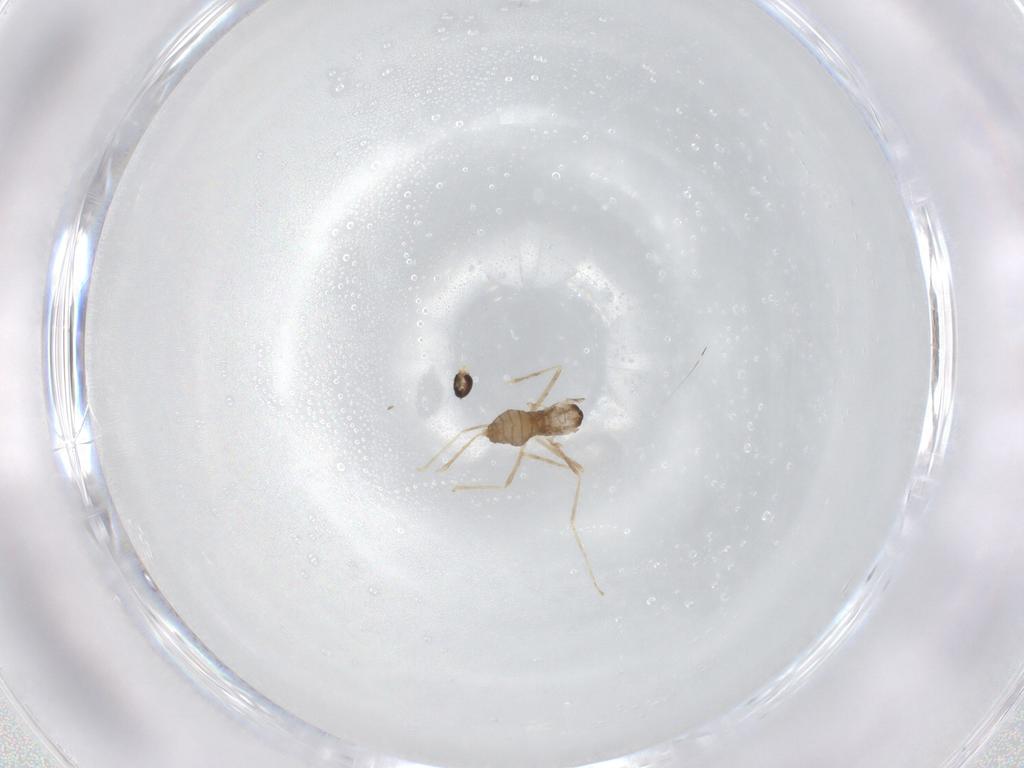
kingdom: Animalia
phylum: Arthropoda
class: Insecta
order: Diptera
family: Cecidomyiidae
